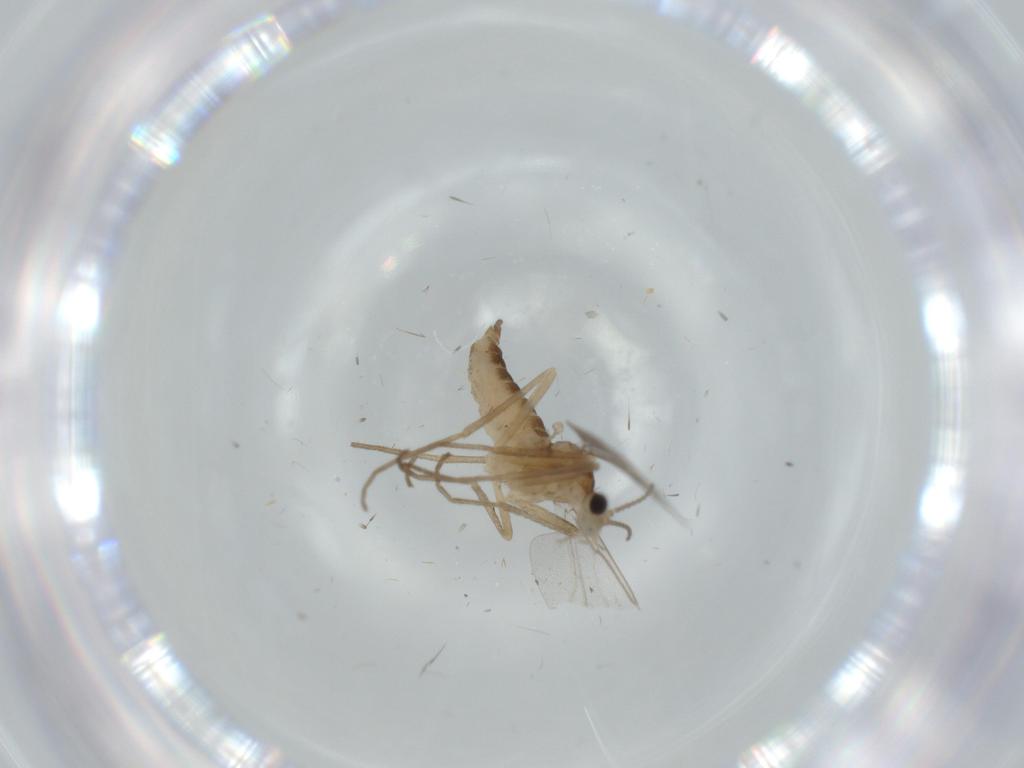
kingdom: Animalia
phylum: Arthropoda
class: Insecta
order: Diptera
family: Cecidomyiidae
